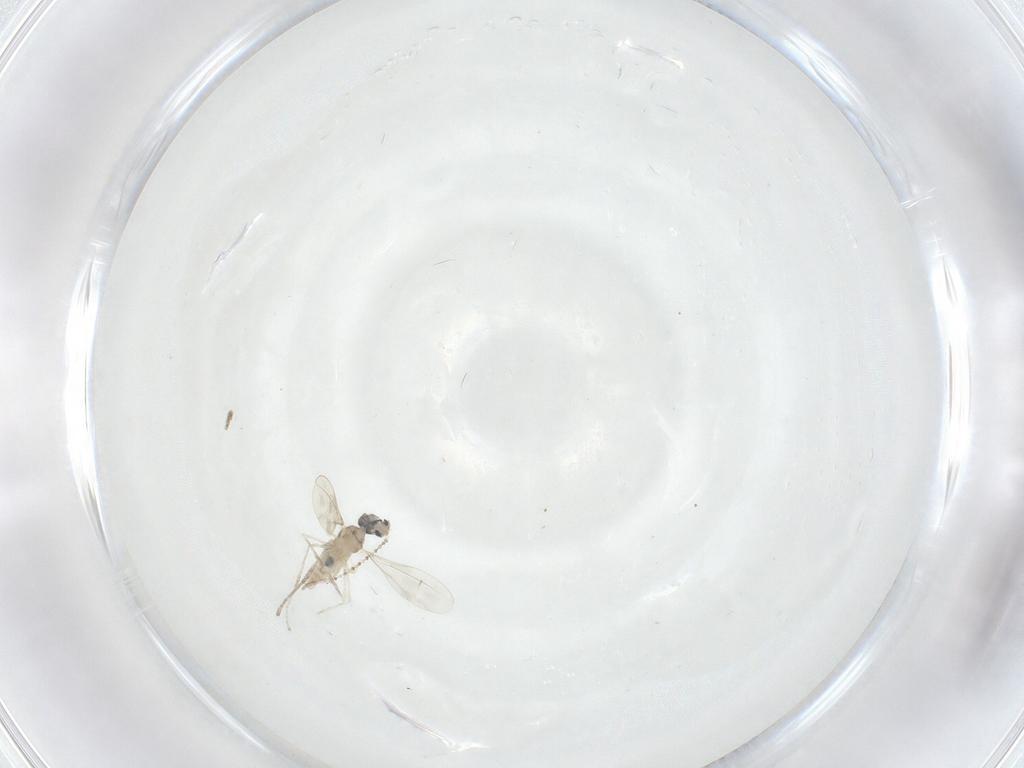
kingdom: Animalia
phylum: Arthropoda
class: Insecta
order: Diptera
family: Cecidomyiidae
